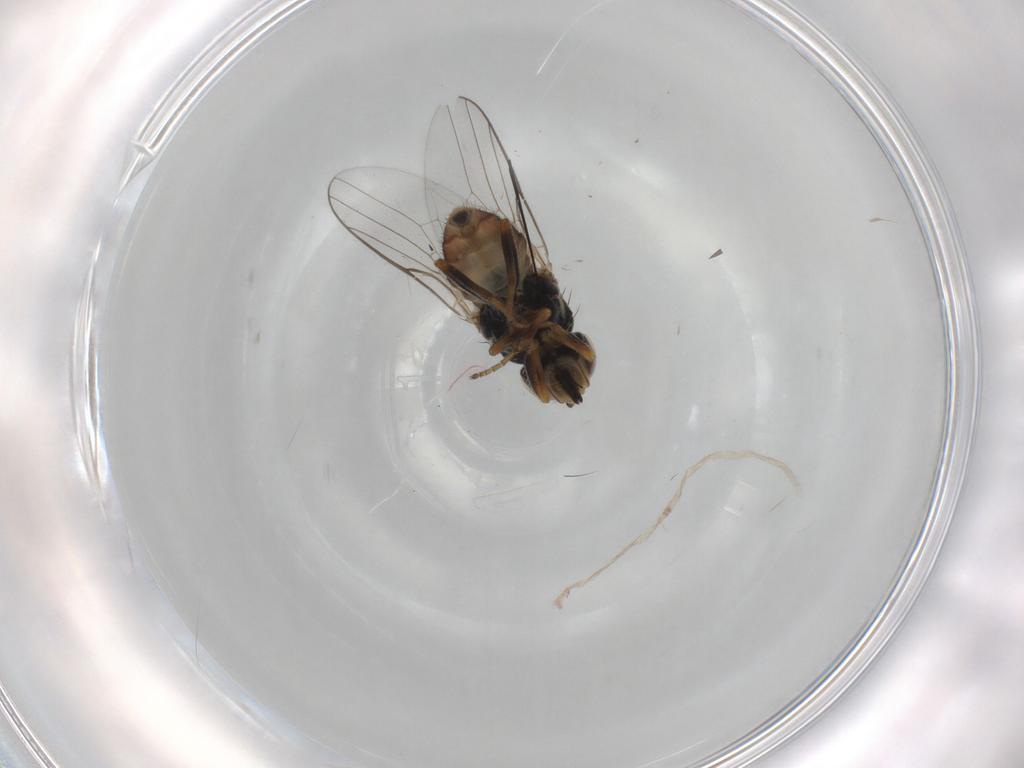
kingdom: Animalia
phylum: Arthropoda
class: Insecta
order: Diptera
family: Chloropidae
